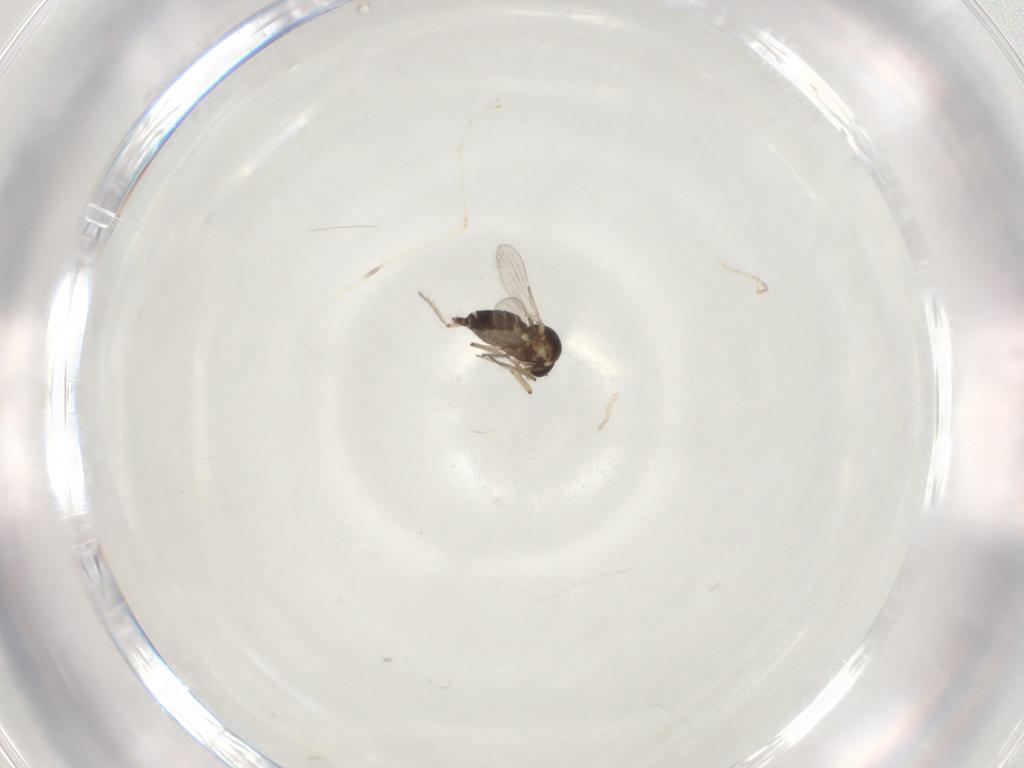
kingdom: Animalia
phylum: Arthropoda
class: Insecta
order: Diptera
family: Ceratopogonidae
